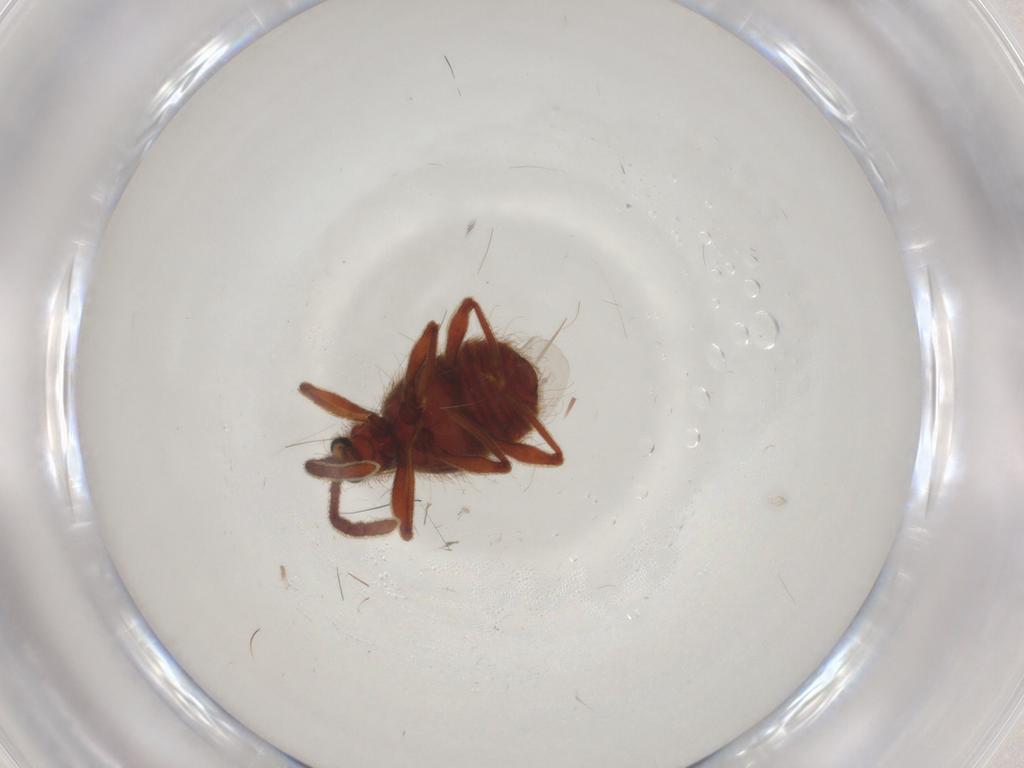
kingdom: Animalia
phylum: Arthropoda
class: Insecta
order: Coleoptera
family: Staphylinidae
